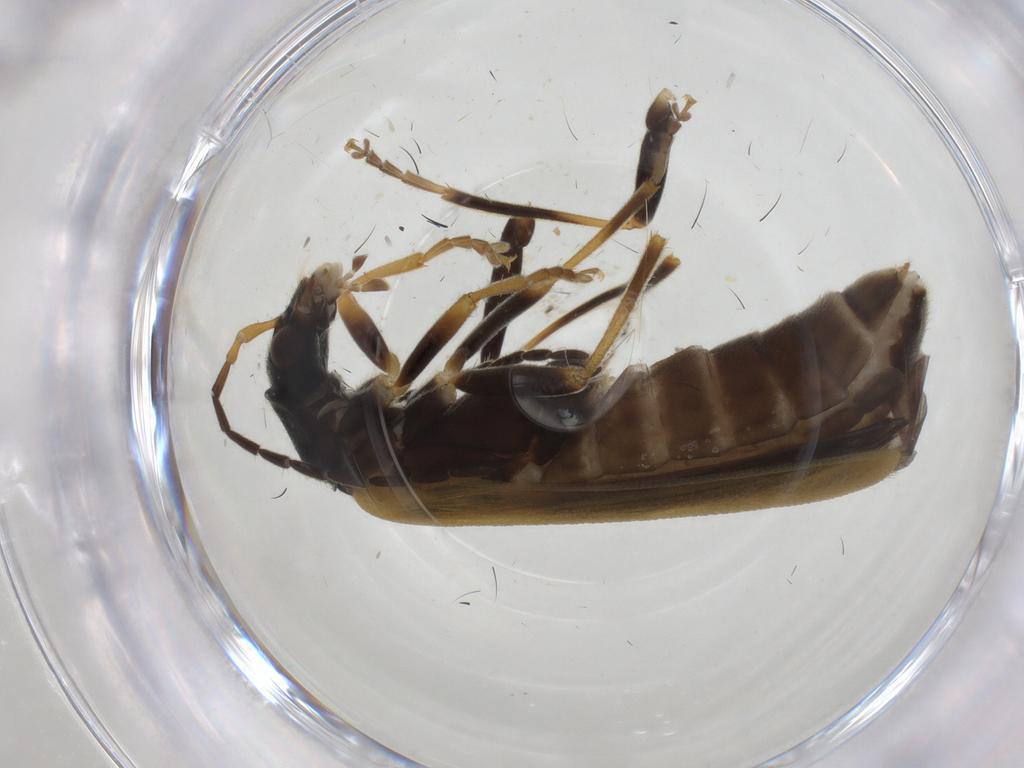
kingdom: Animalia
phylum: Arthropoda
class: Insecta
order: Coleoptera
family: Cantharidae
